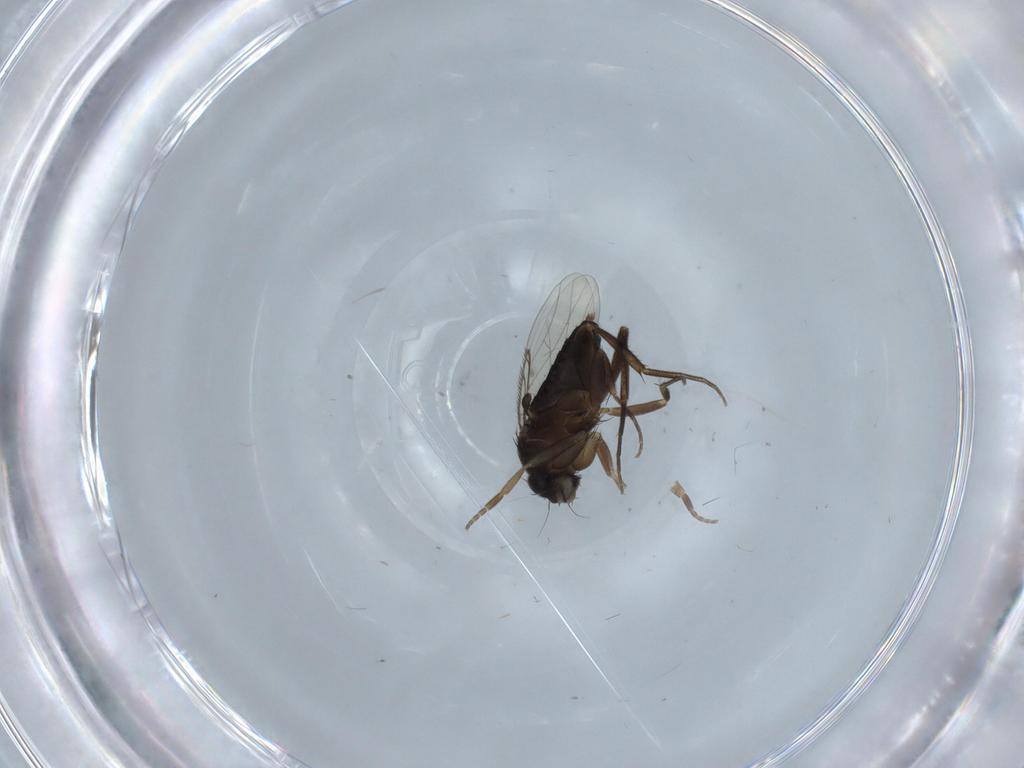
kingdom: Animalia
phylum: Arthropoda
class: Insecta
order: Diptera
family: Phoridae
